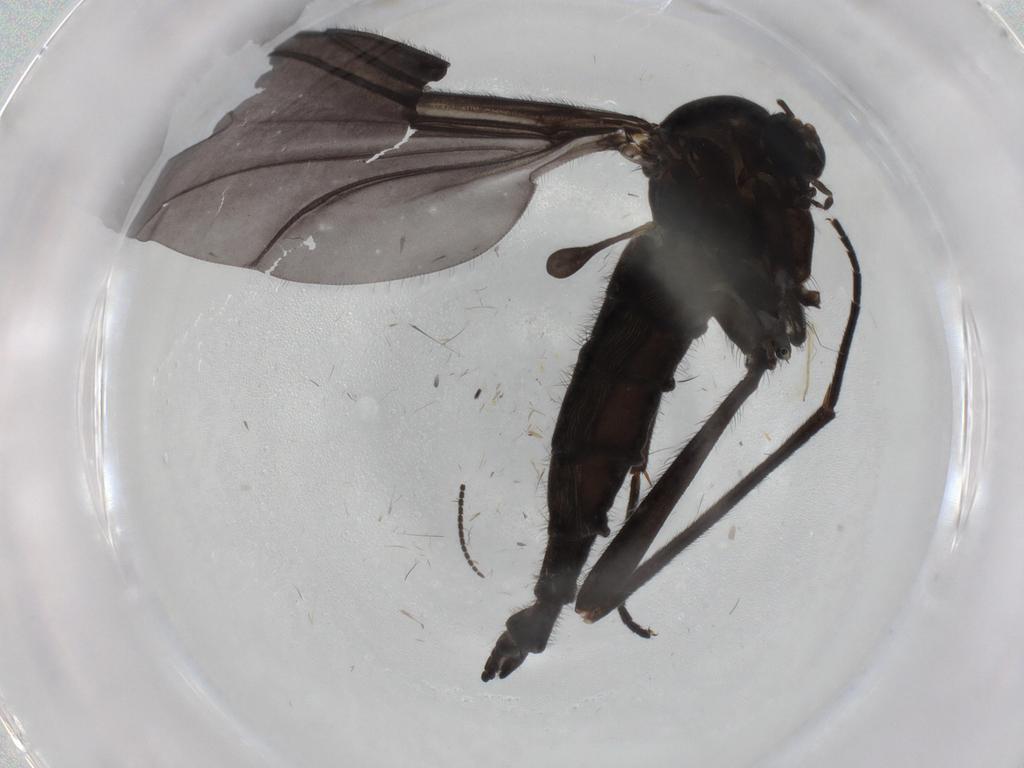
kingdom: Animalia
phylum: Arthropoda
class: Insecta
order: Diptera
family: Sciaridae
